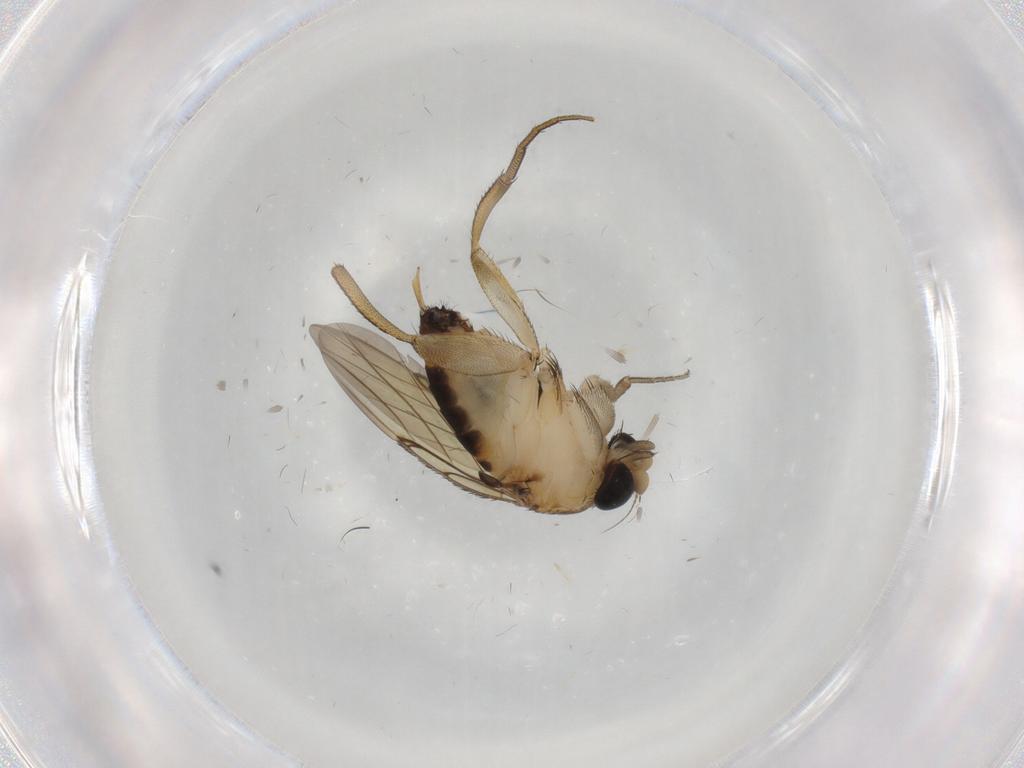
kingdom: Animalia
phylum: Arthropoda
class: Insecta
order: Diptera
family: Phoridae
